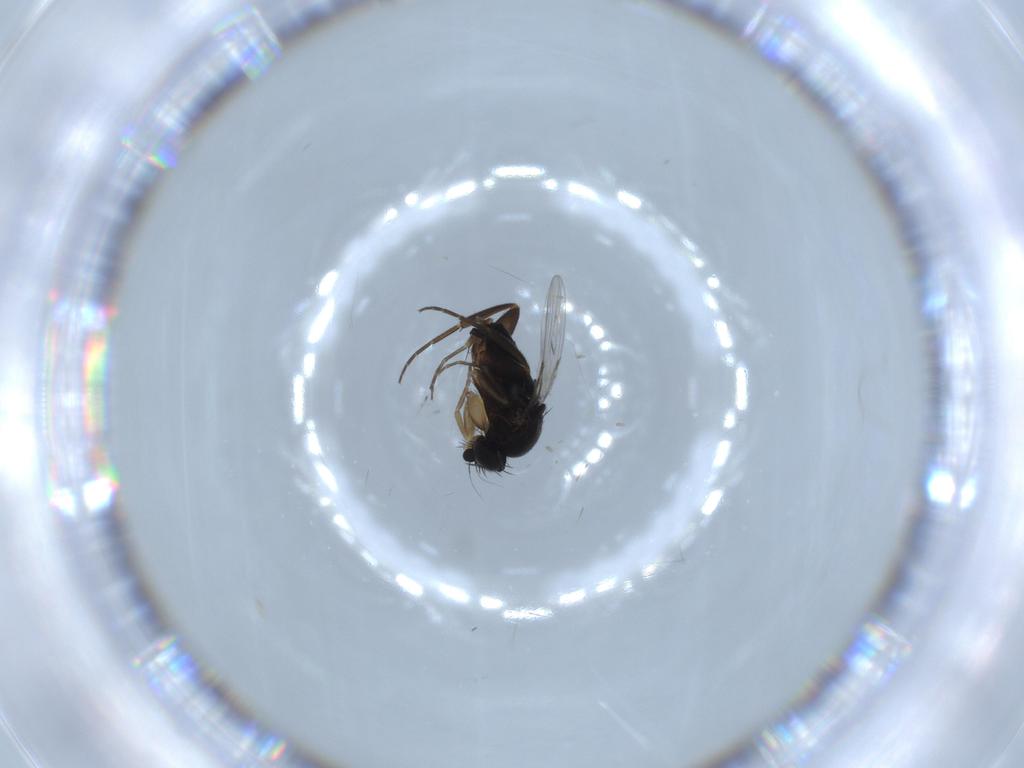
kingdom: Animalia
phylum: Arthropoda
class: Insecta
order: Diptera
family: Phoridae
